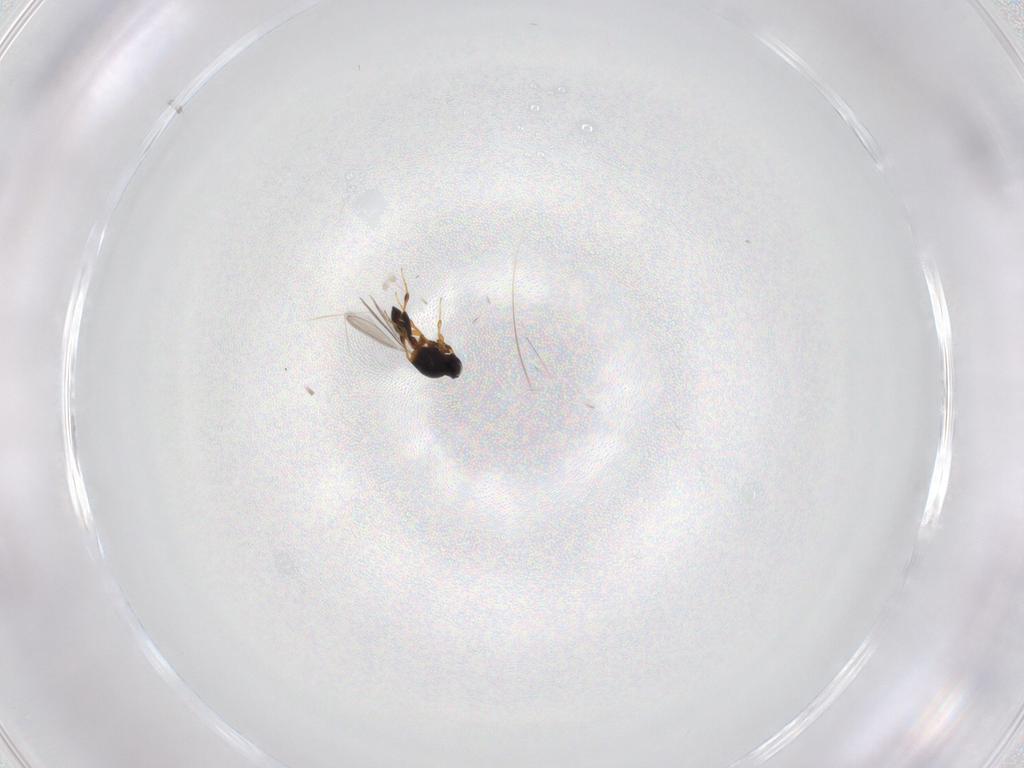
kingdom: Animalia
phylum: Arthropoda
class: Insecta
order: Hymenoptera
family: Platygastridae
